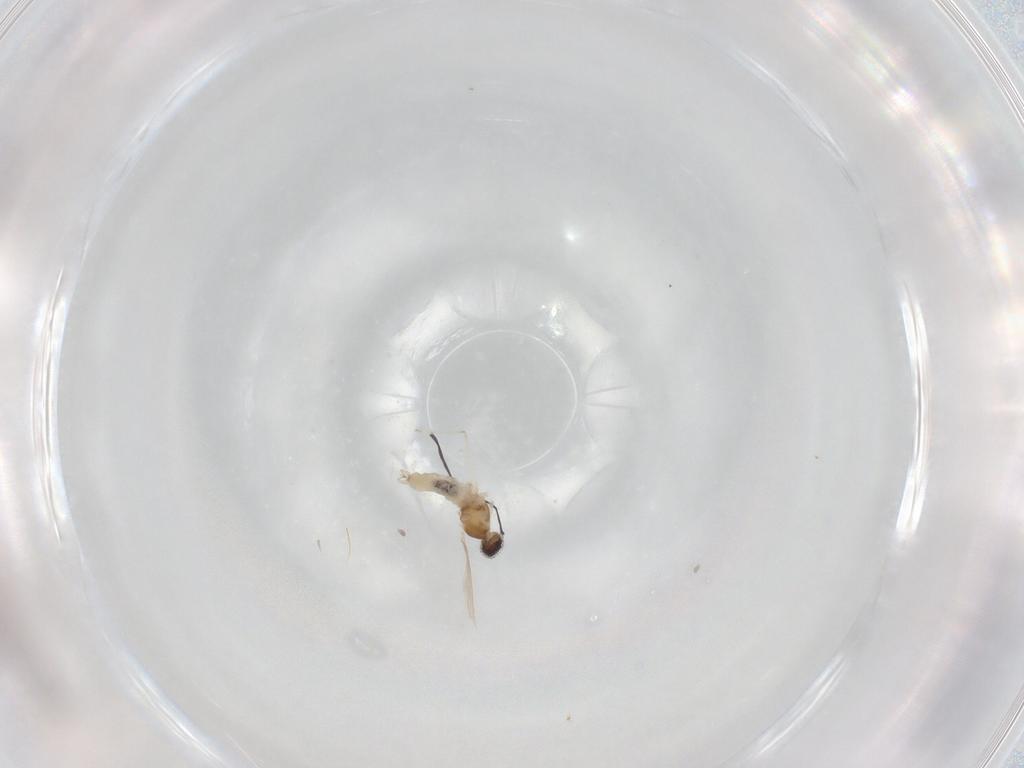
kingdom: Animalia
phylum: Arthropoda
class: Insecta
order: Diptera
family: Cecidomyiidae
